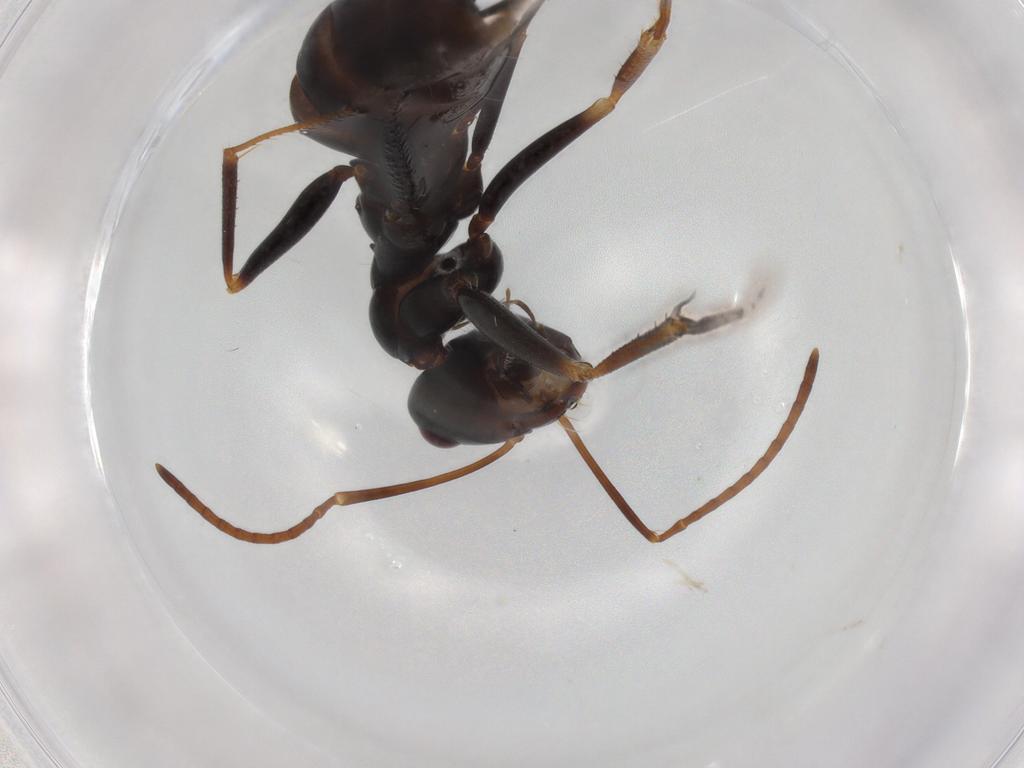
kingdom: Animalia
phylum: Arthropoda
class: Insecta
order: Hymenoptera
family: Formicidae
